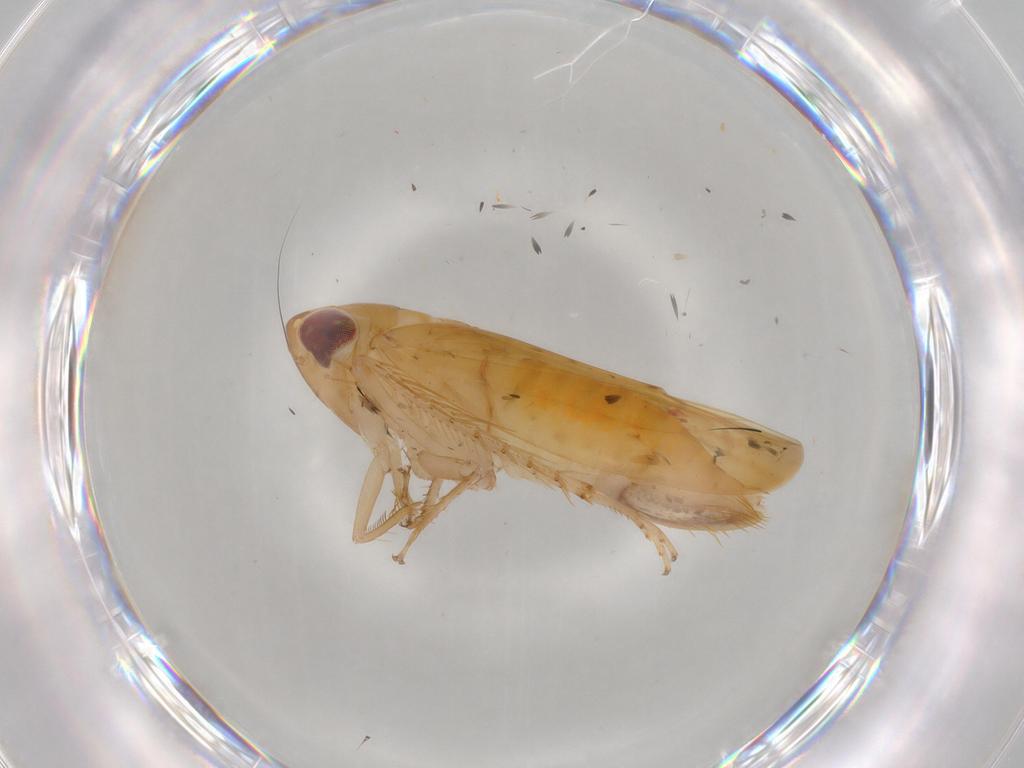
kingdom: Animalia
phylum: Arthropoda
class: Insecta
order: Hemiptera
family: Cicadellidae
